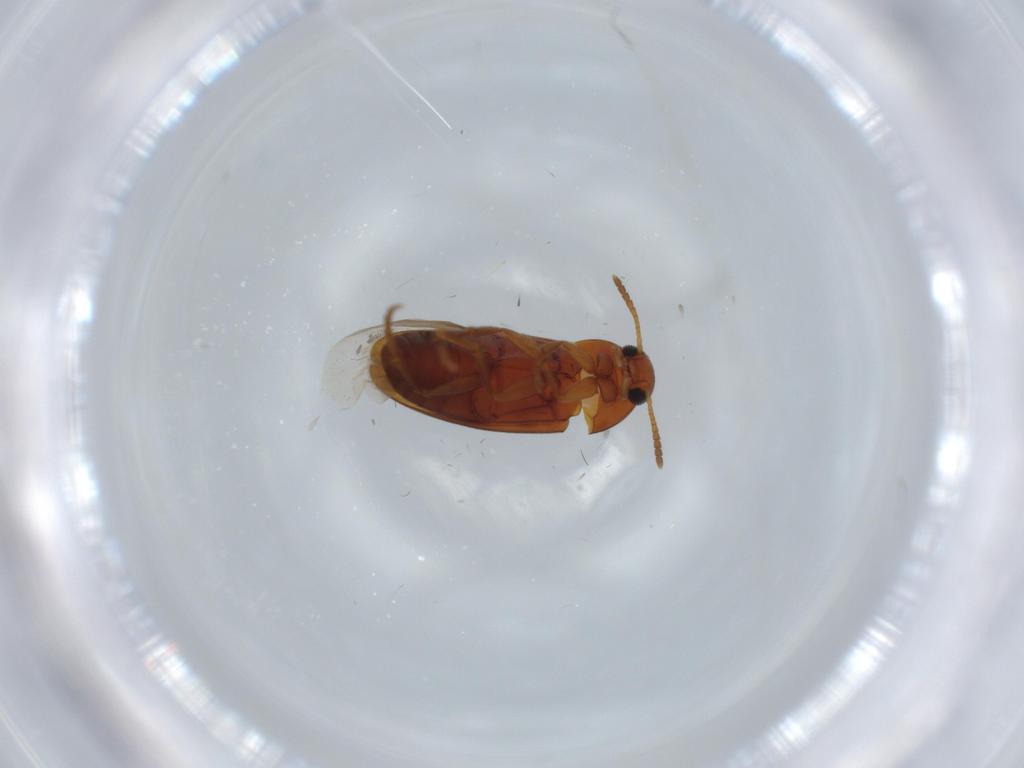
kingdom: Animalia
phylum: Arthropoda
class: Insecta
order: Coleoptera
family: Scraptiidae
